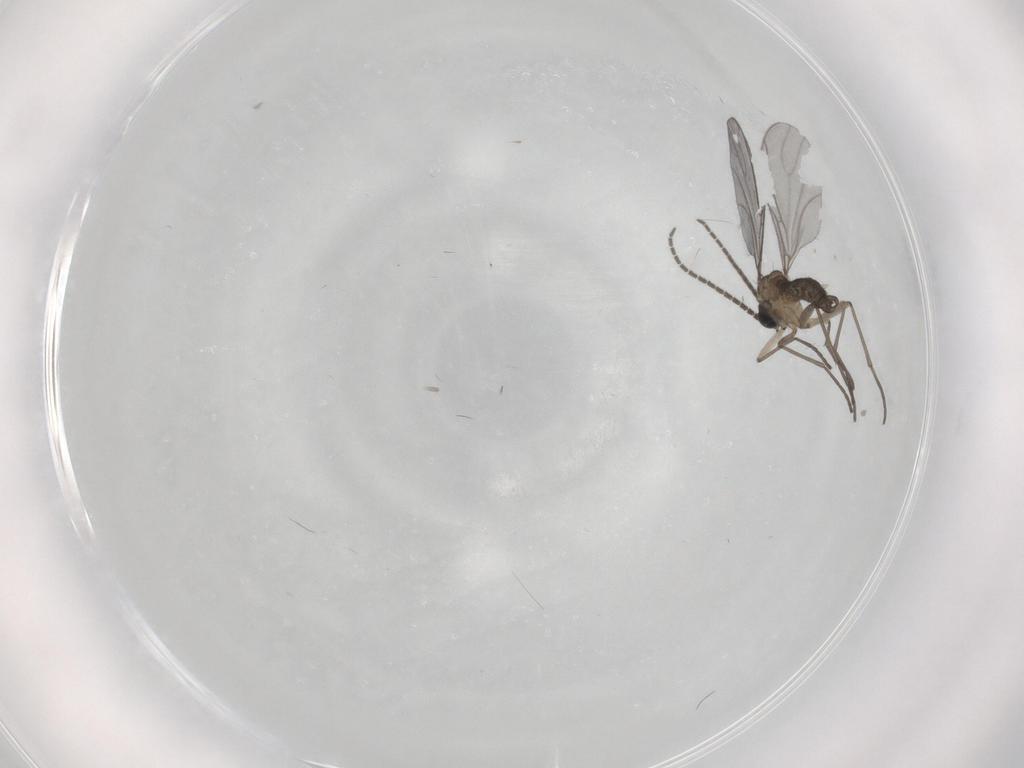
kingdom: Animalia
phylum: Arthropoda
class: Insecta
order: Diptera
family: Sciaridae
